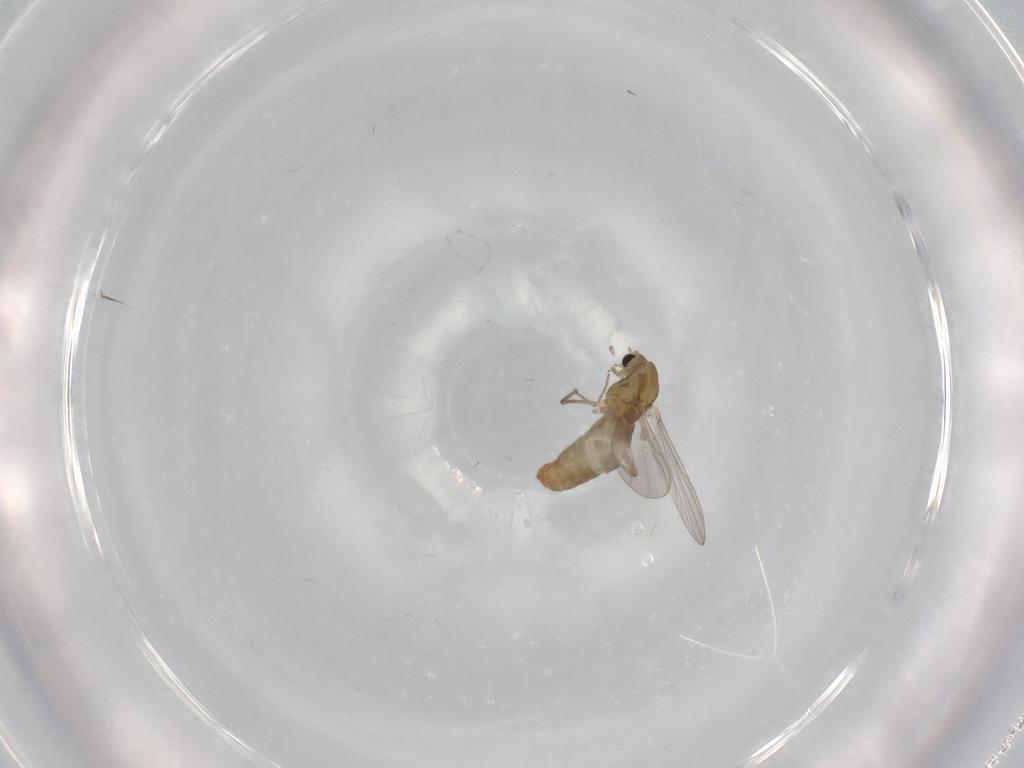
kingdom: Animalia
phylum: Arthropoda
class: Insecta
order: Diptera
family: Chironomidae
